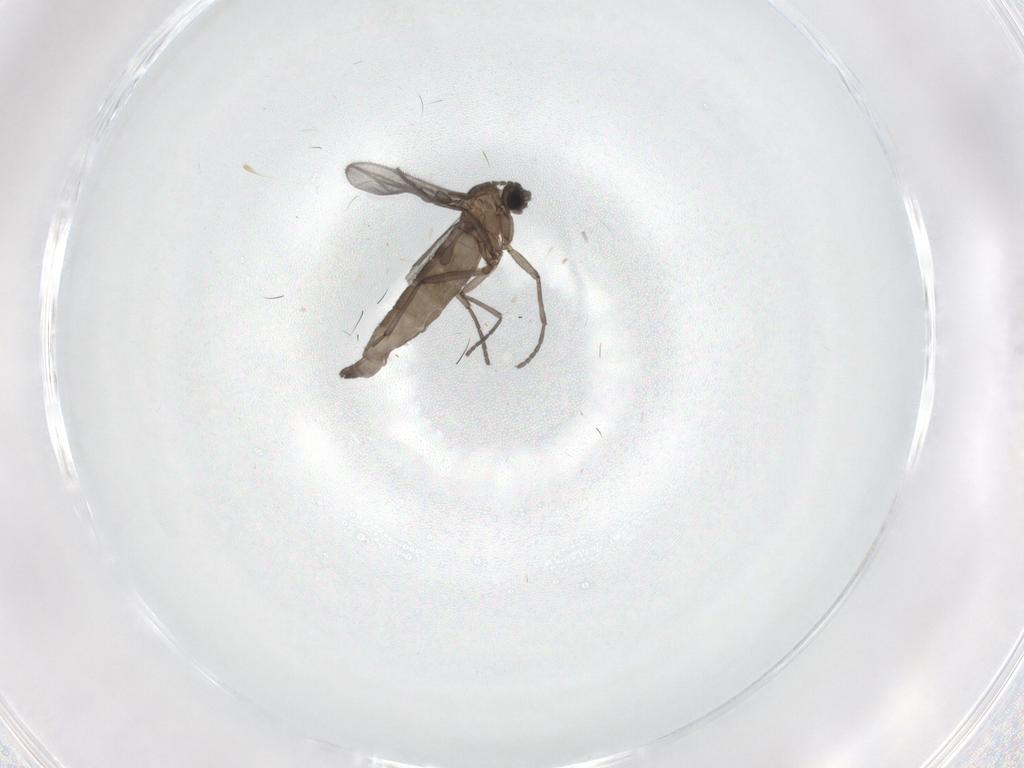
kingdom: Animalia
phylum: Arthropoda
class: Insecta
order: Diptera
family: Sciaridae
